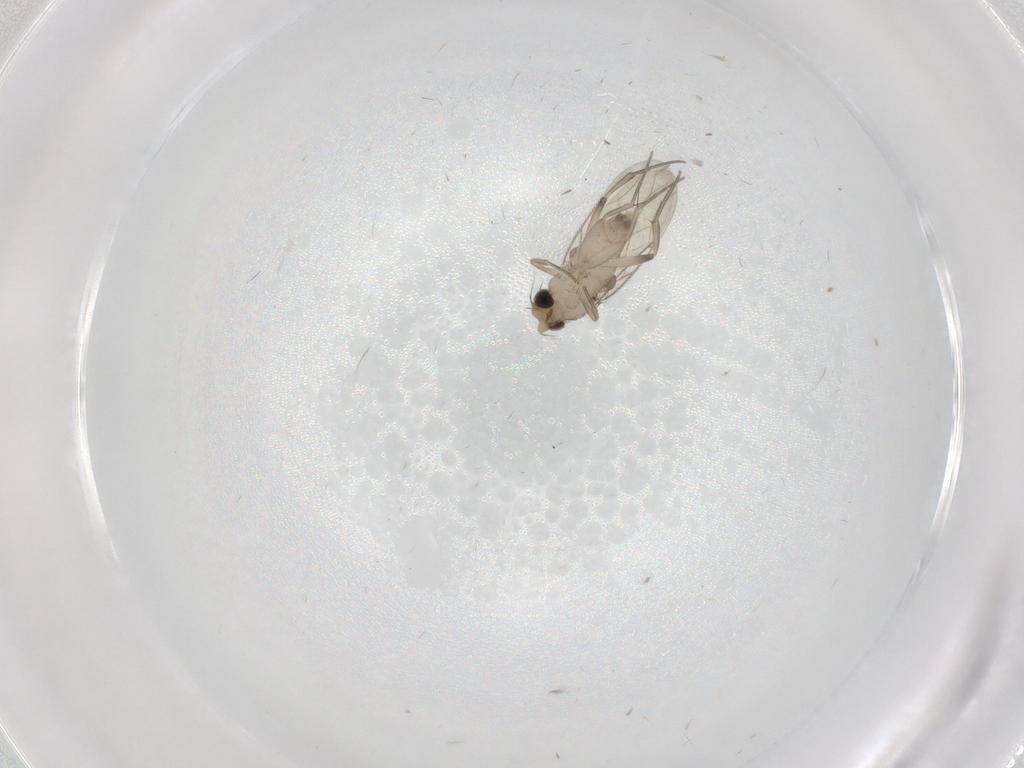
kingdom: Animalia
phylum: Arthropoda
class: Insecta
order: Diptera
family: Phoridae
